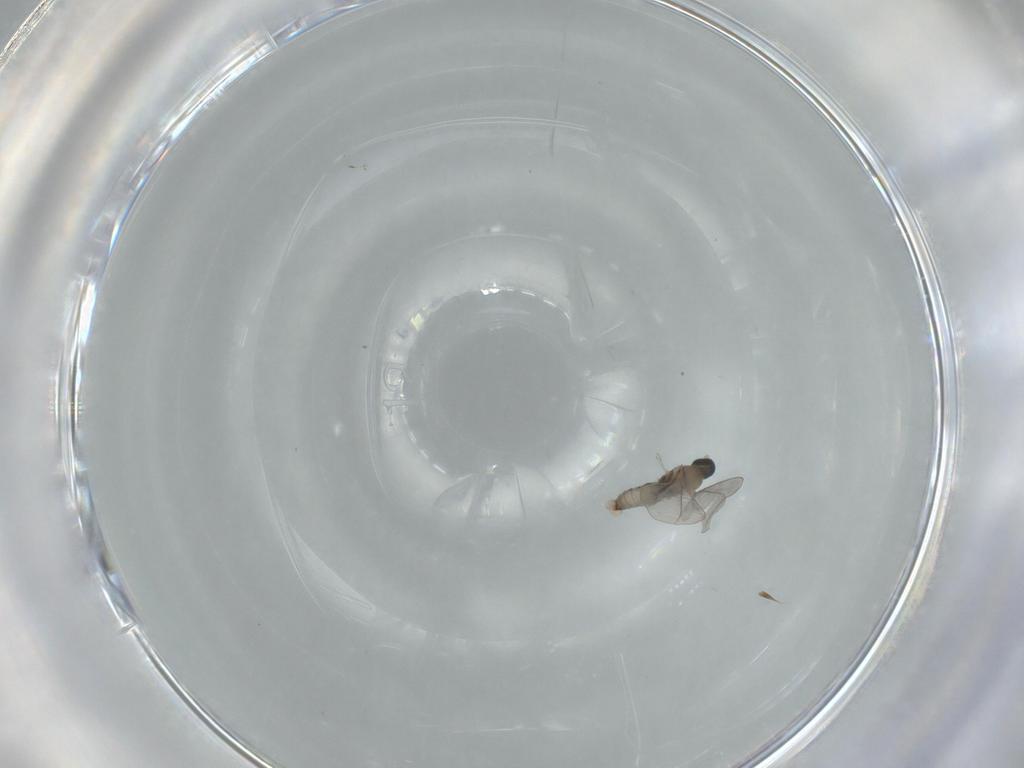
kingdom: Animalia
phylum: Arthropoda
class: Insecta
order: Diptera
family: Cecidomyiidae
